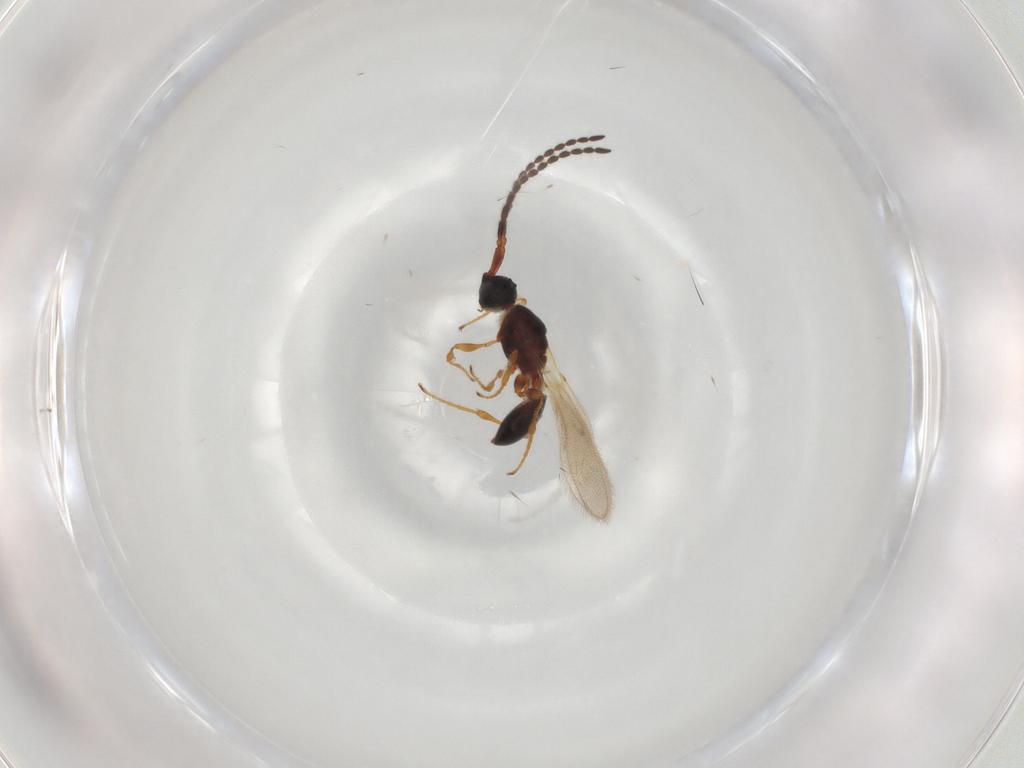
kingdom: Animalia
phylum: Arthropoda
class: Insecta
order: Hymenoptera
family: Diapriidae
